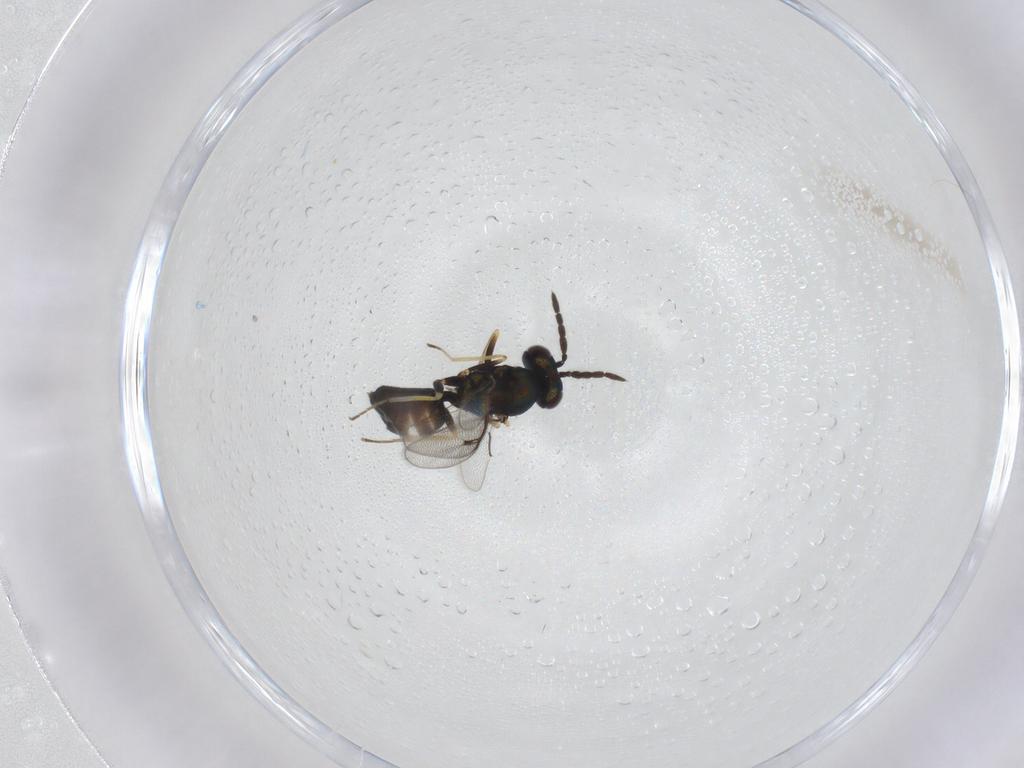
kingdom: Animalia
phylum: Arthropoda
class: Insecta
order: Hymenoptera
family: Eulophidae
